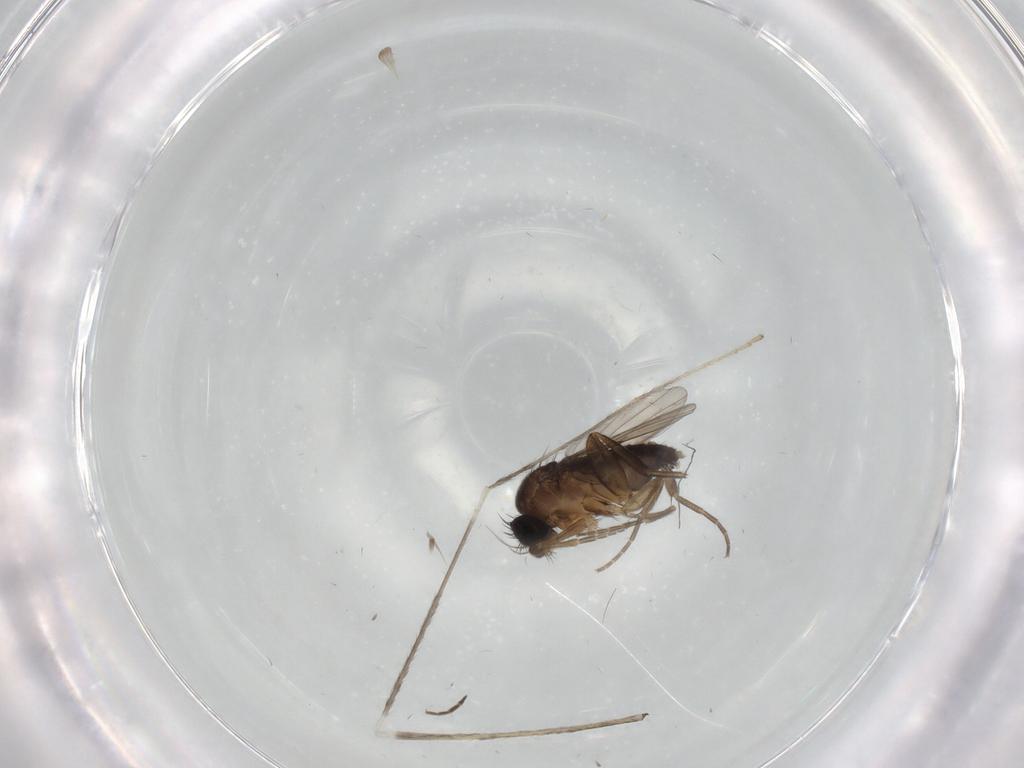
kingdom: Animalia
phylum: Arthropoda
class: Insecta
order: Diptera
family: Phoridae
